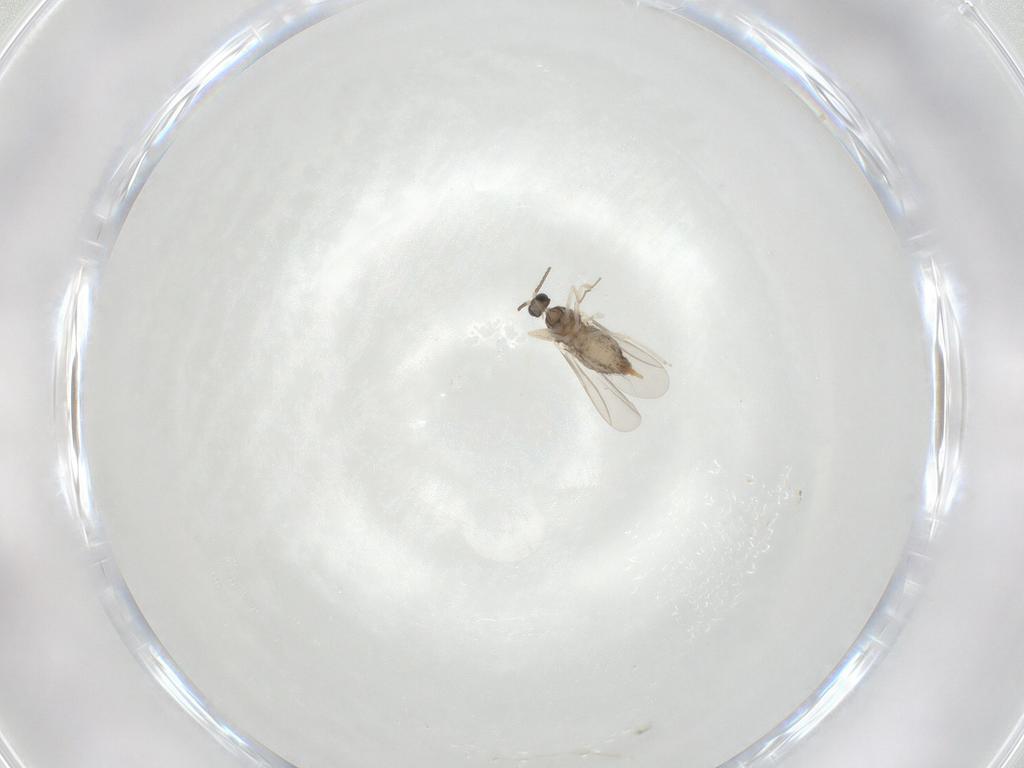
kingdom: Animalia
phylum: Arthropoda
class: Insecta
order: Diptera
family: Cecidomyiidae
